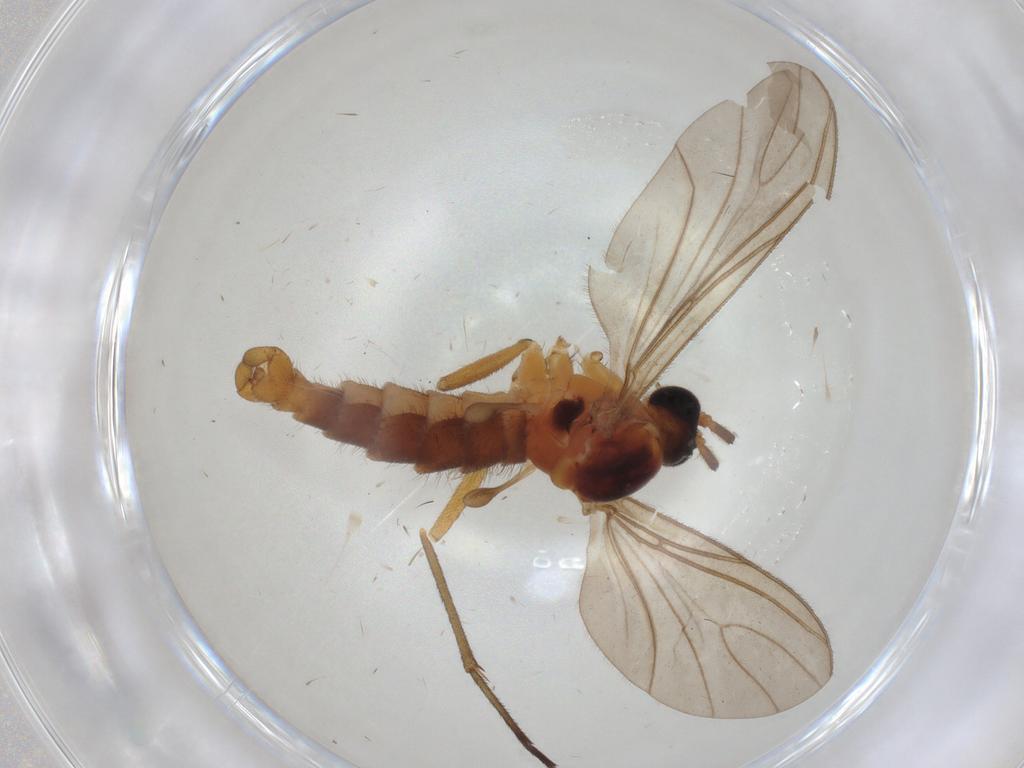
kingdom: Animalia
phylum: Arthropoda
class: Insecta
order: Diptera
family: Sciaridae
